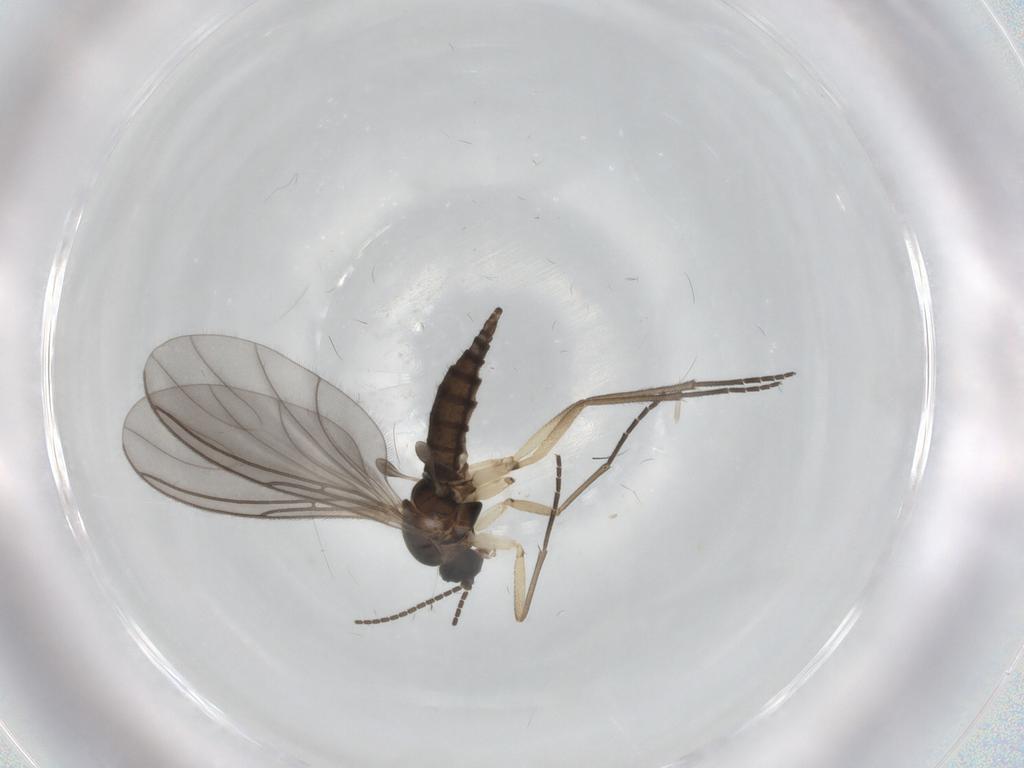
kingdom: Animalia
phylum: Arthropoda
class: Insecta
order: Diptera
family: Sciaridae
